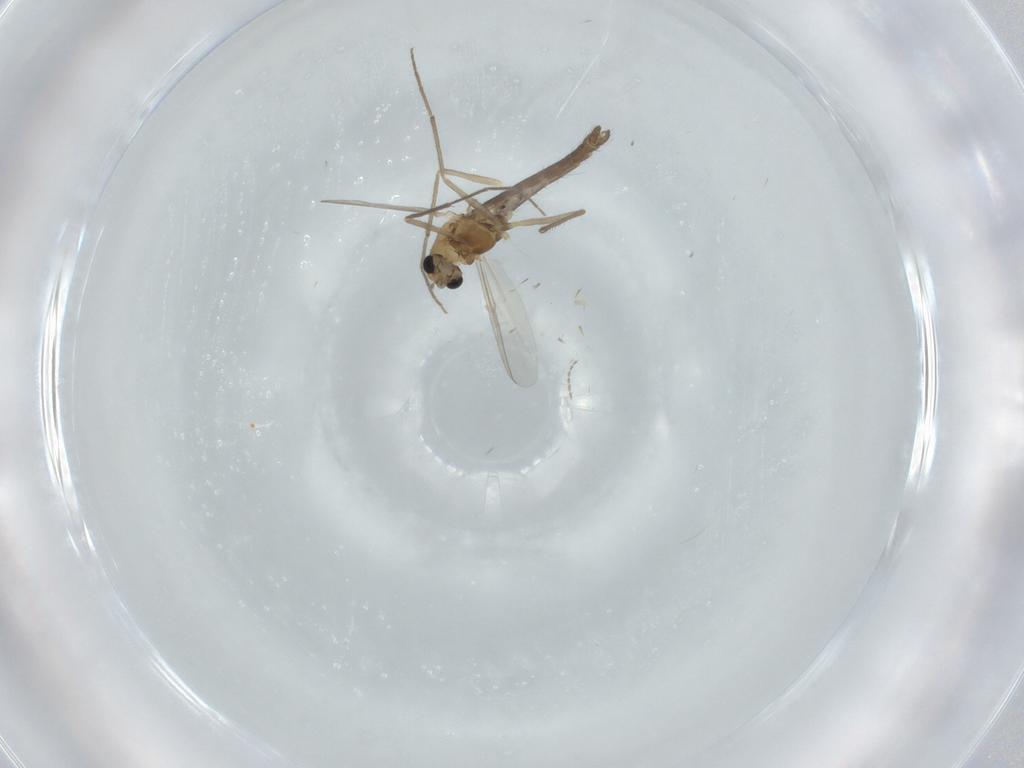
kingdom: Animalia
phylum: Arthropoda
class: Insecta
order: Diptera
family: Chironomidae
